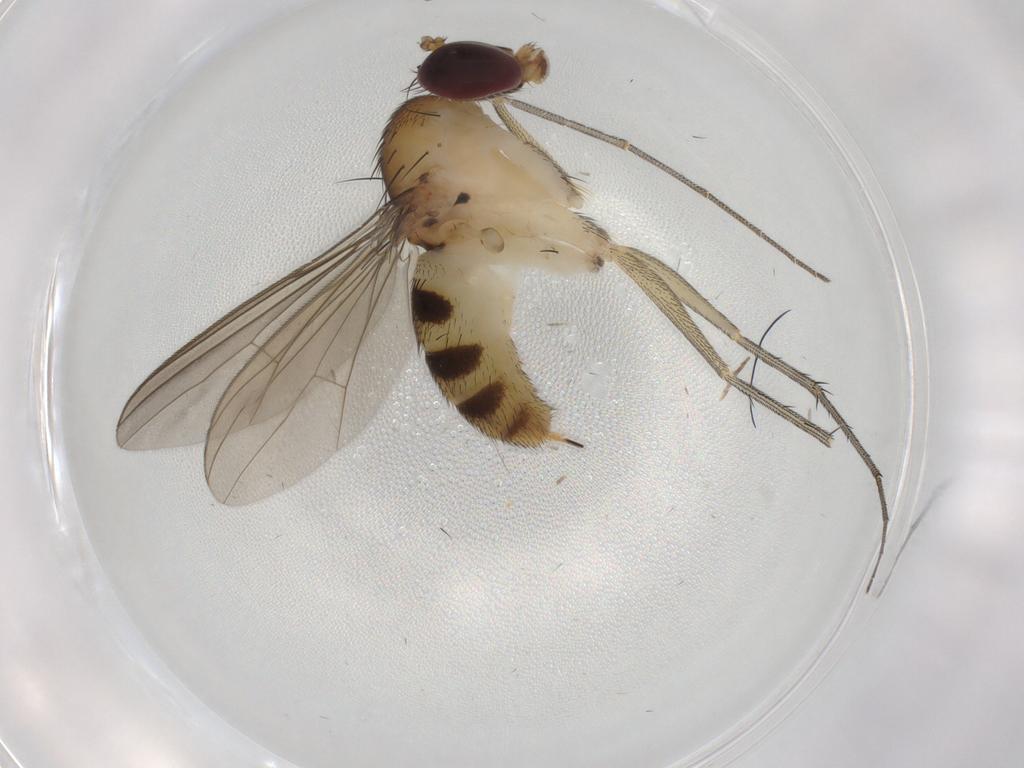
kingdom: Animalia
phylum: Arthropoda
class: Insecta
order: Diptera
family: Dolichopodidae
